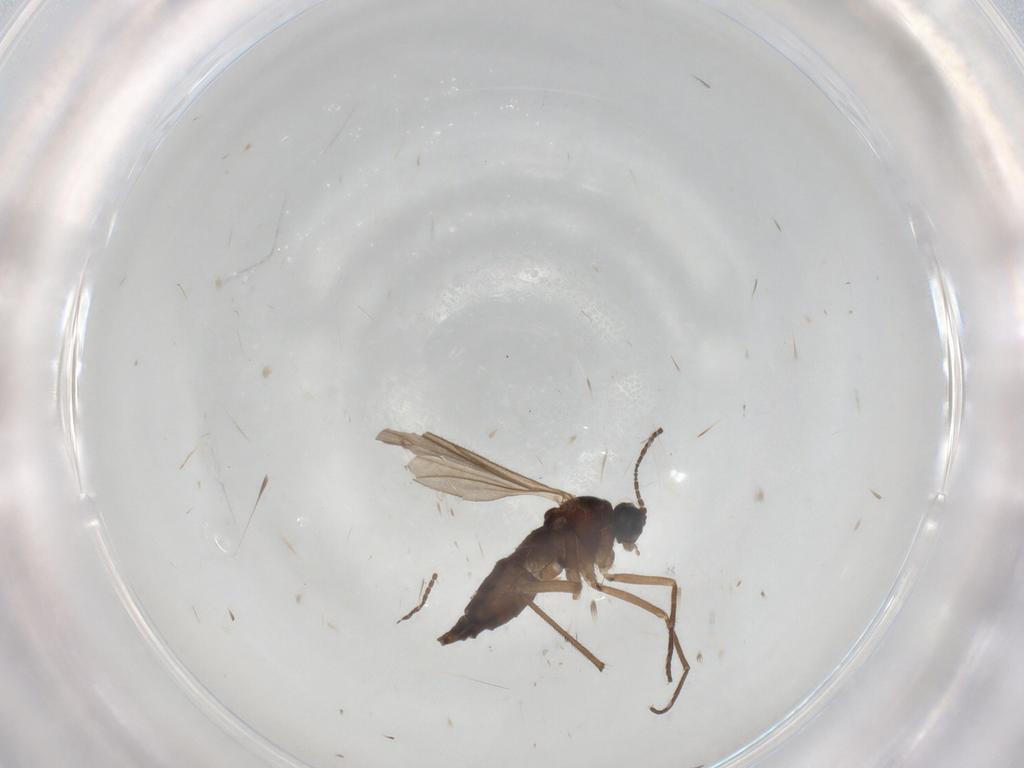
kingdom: Animalia
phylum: Arthropoda
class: Insecta
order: Diptera
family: Sciaridae
